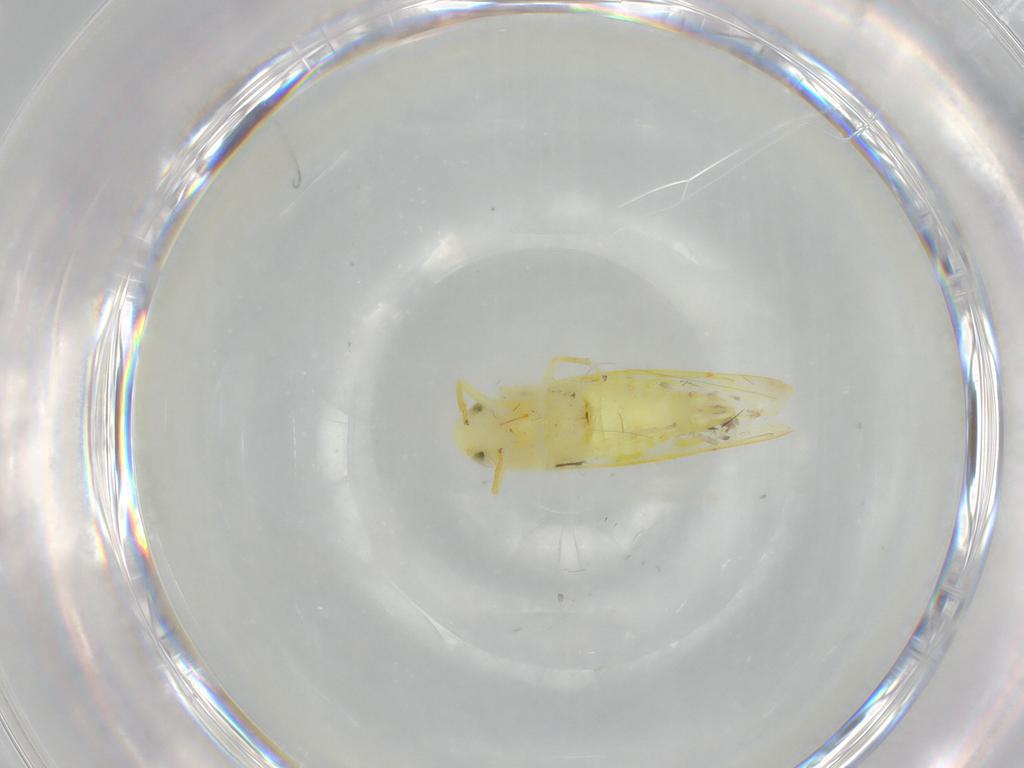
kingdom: Animalia
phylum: Arthropoda
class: Insecta
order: Hemiptera
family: Cicadellidae
